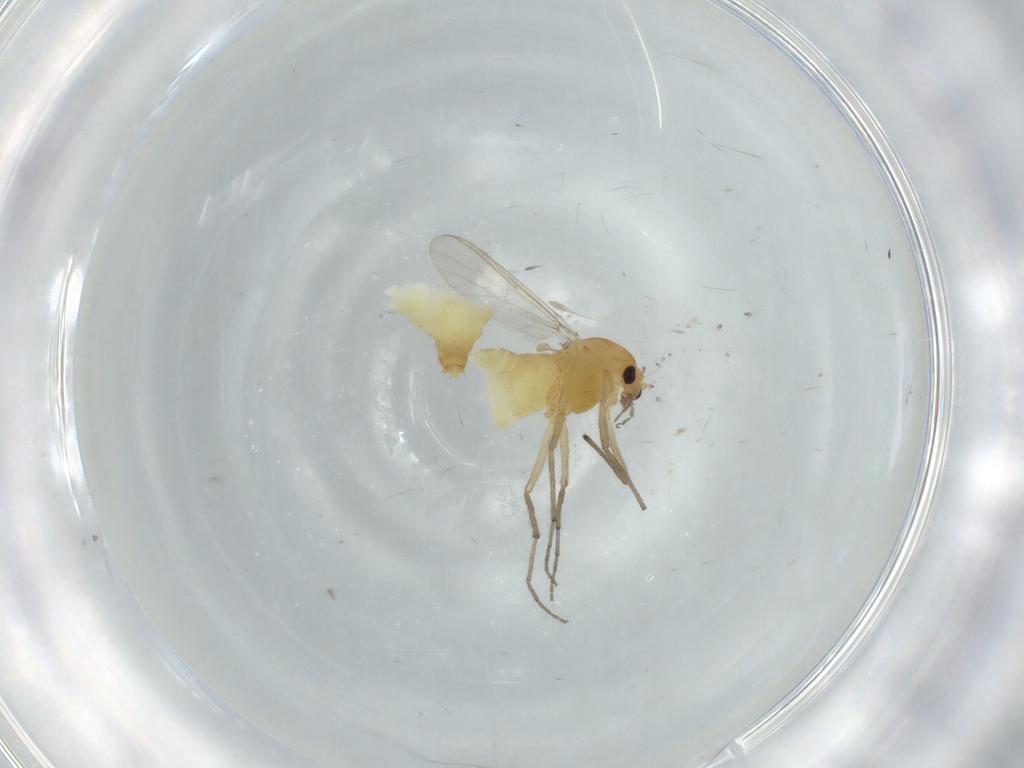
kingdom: Animalia
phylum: Arthropoda
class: Insecta
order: Diptera
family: Chironomidae
